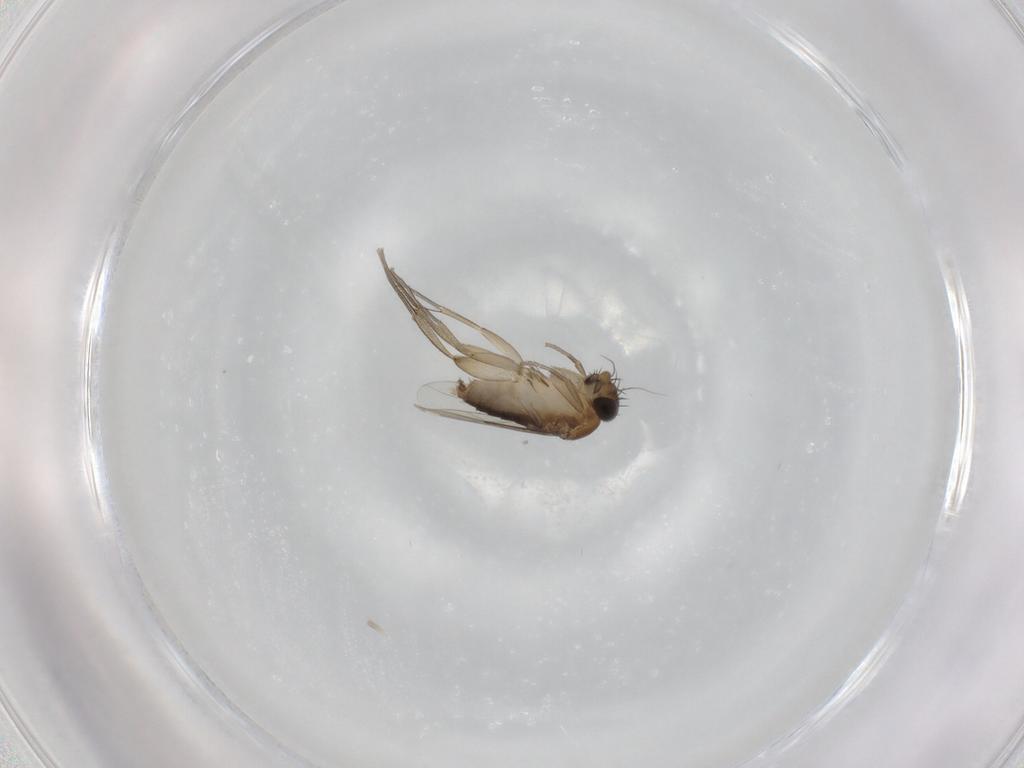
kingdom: Animalia
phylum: Arthropoda
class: Insecta
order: Diptera
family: Phoridae
